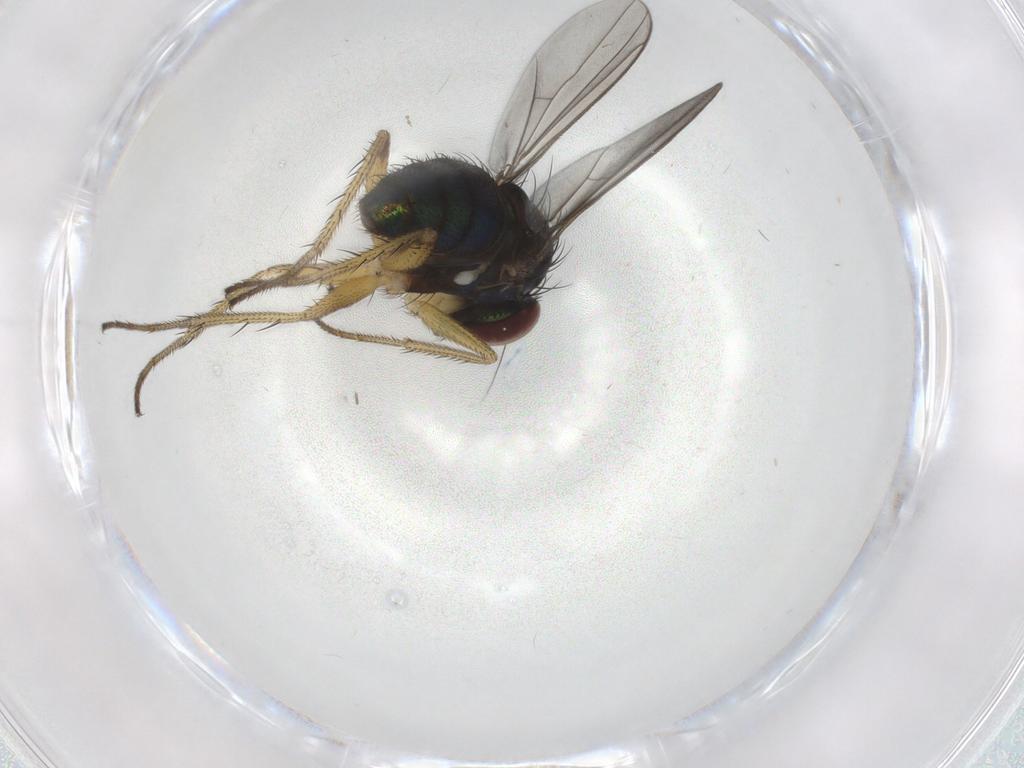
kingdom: Animalia
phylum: Arthropoda
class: Insecta
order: Diptera
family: Dolichopodidae
